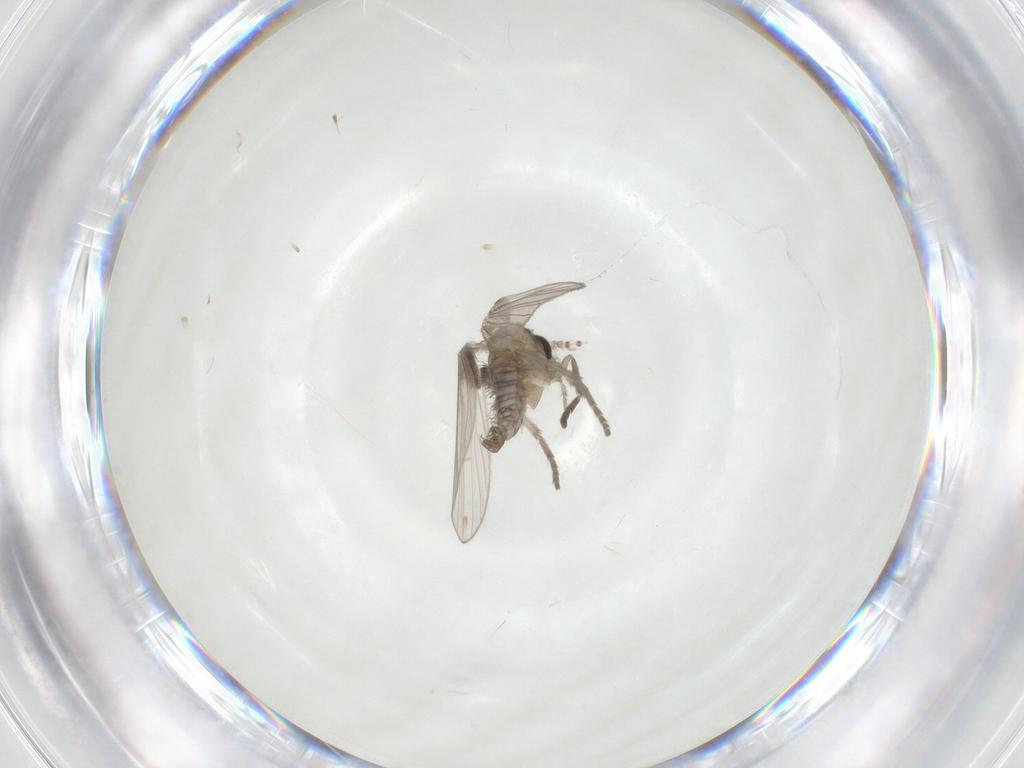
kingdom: Animalia
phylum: Arthropoda
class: Insecta
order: Diptera
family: Psychodidae
